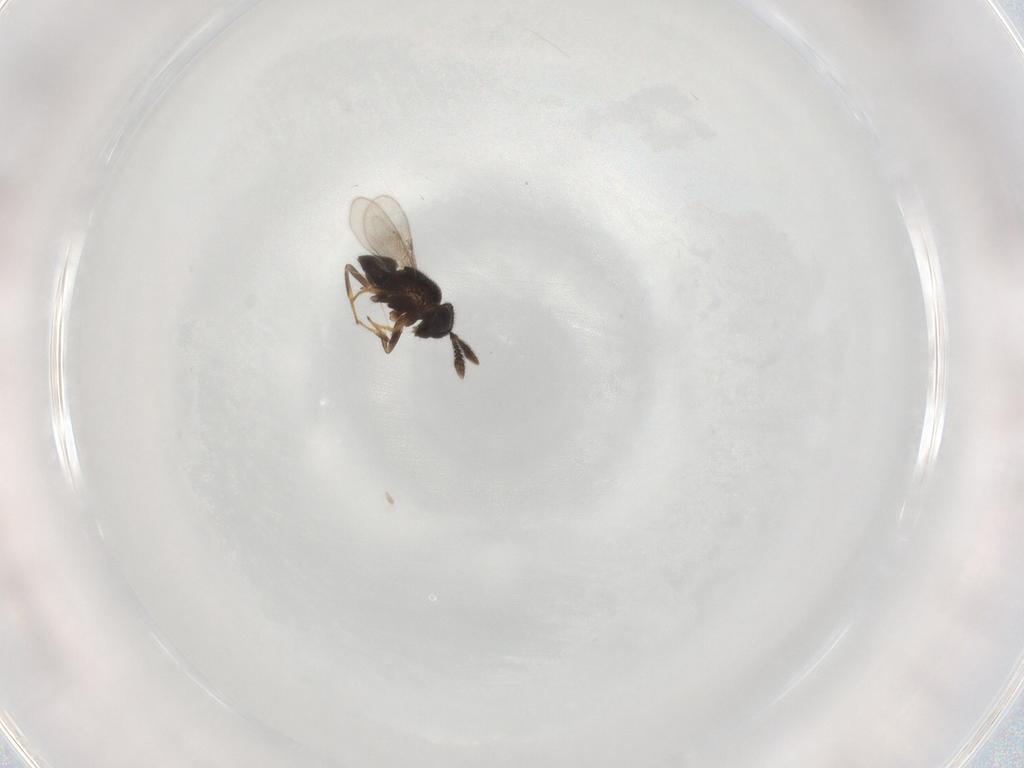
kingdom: Animalia
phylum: Arthropoda
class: Insecta
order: Hymenoptera
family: Encyrtidae
